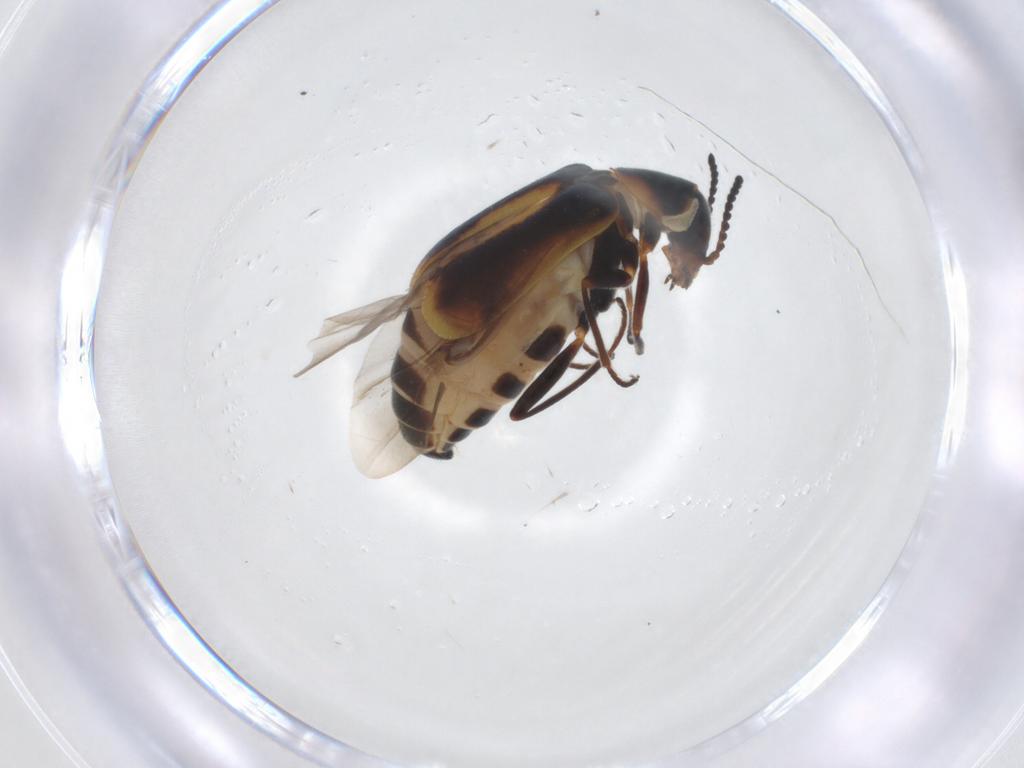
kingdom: Animalia
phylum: Arthropoda
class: Insecta
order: Coleoptera
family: Melyridae
